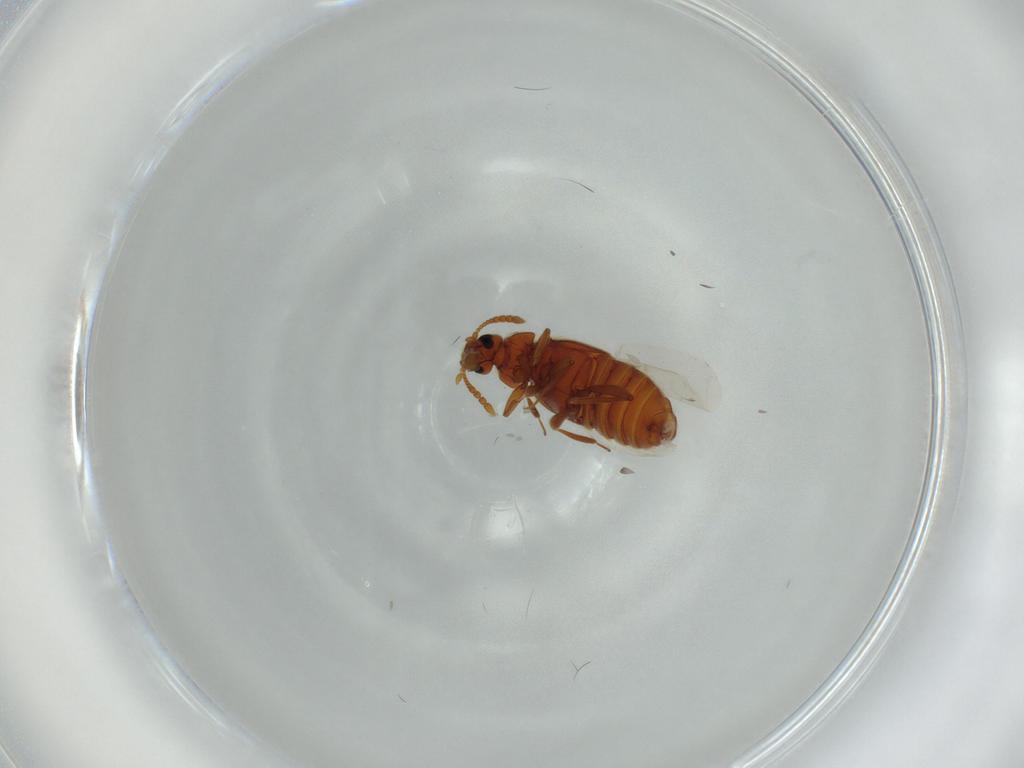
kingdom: Animalia
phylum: Arthropoda
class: Insecta
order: Coleoptera
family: Staphylinidae
